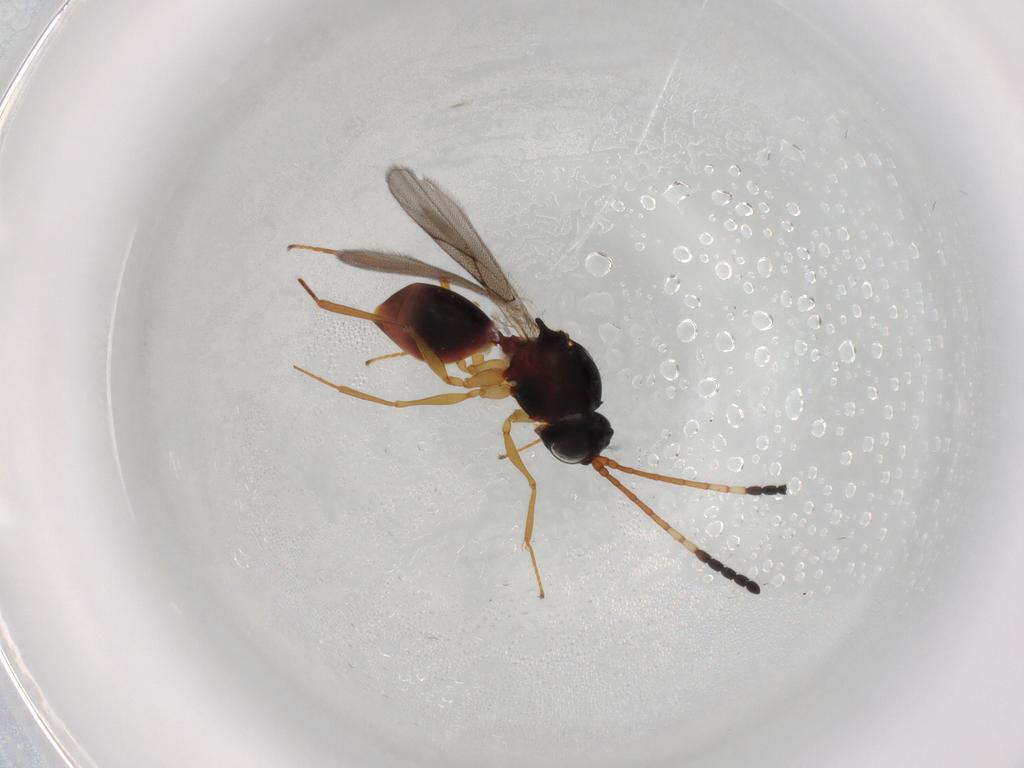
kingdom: Animalia
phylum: Arthropoda
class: Insecta
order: Hymenoptera
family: Figitidae
